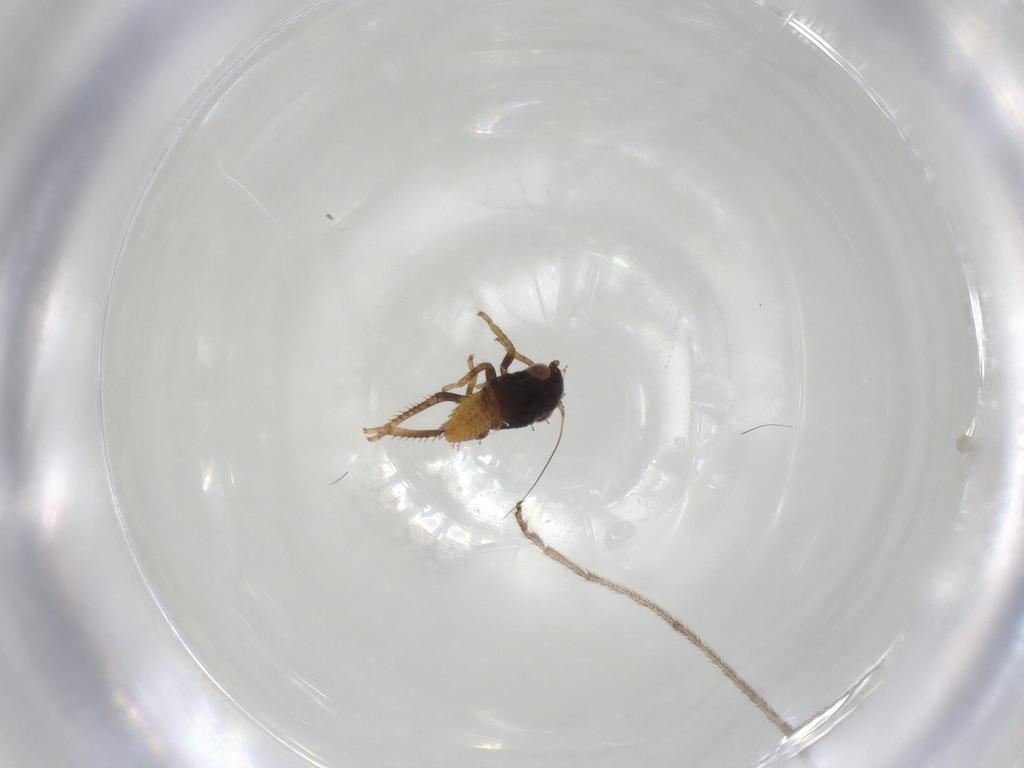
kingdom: Animalia
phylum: Arthropoda
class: Insecta
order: Hemiptera
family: Cicadellidae
